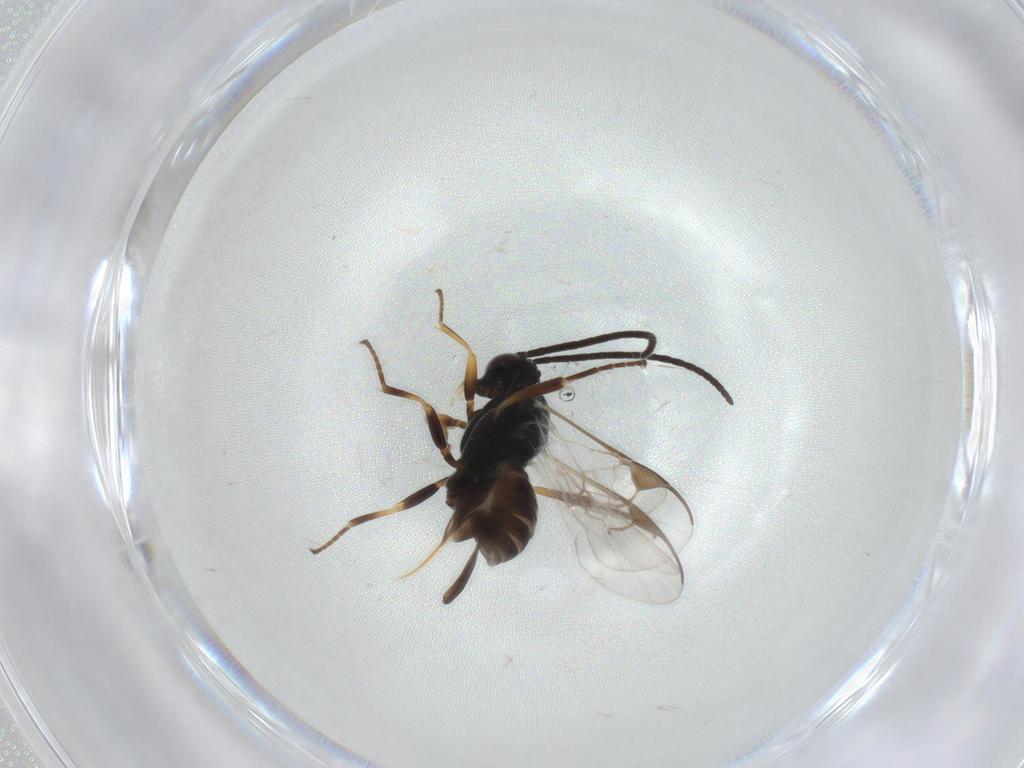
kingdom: Animalia
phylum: Arthropoda
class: Insecta
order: Hymenoptera
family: Braconidae
